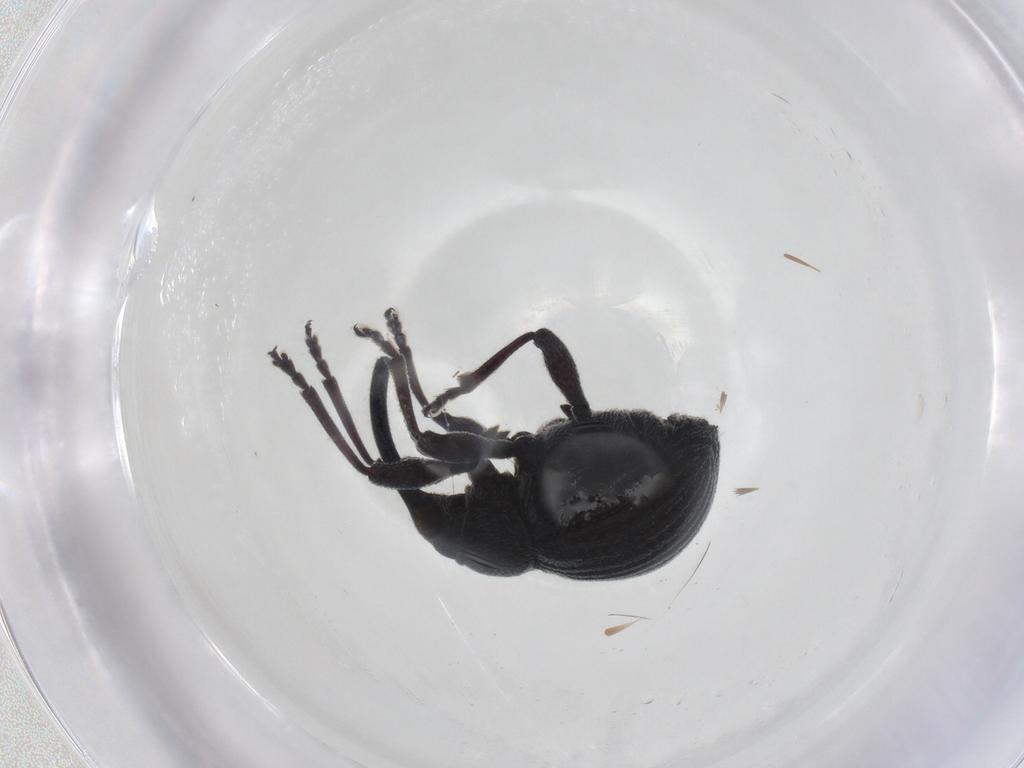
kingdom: Animalia
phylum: Arthropoda
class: Insecta
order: Coleoptera
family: Brentidae
